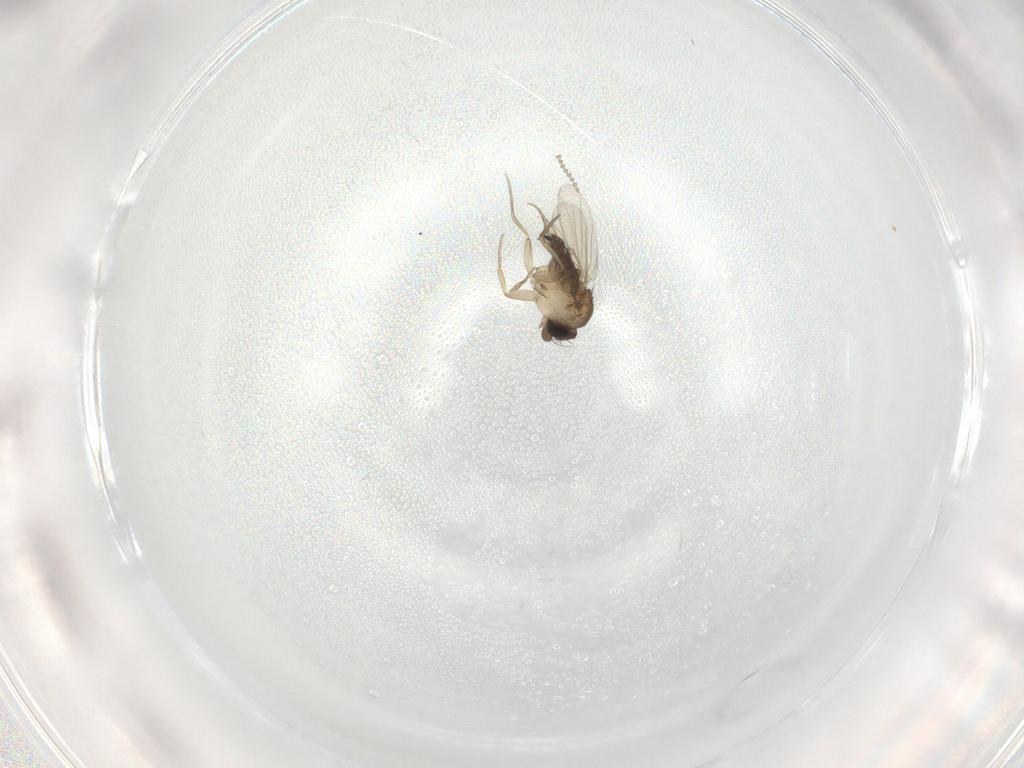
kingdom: Animalia
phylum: Arthropoda
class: Insecta
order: Diptera
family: Phoridae
